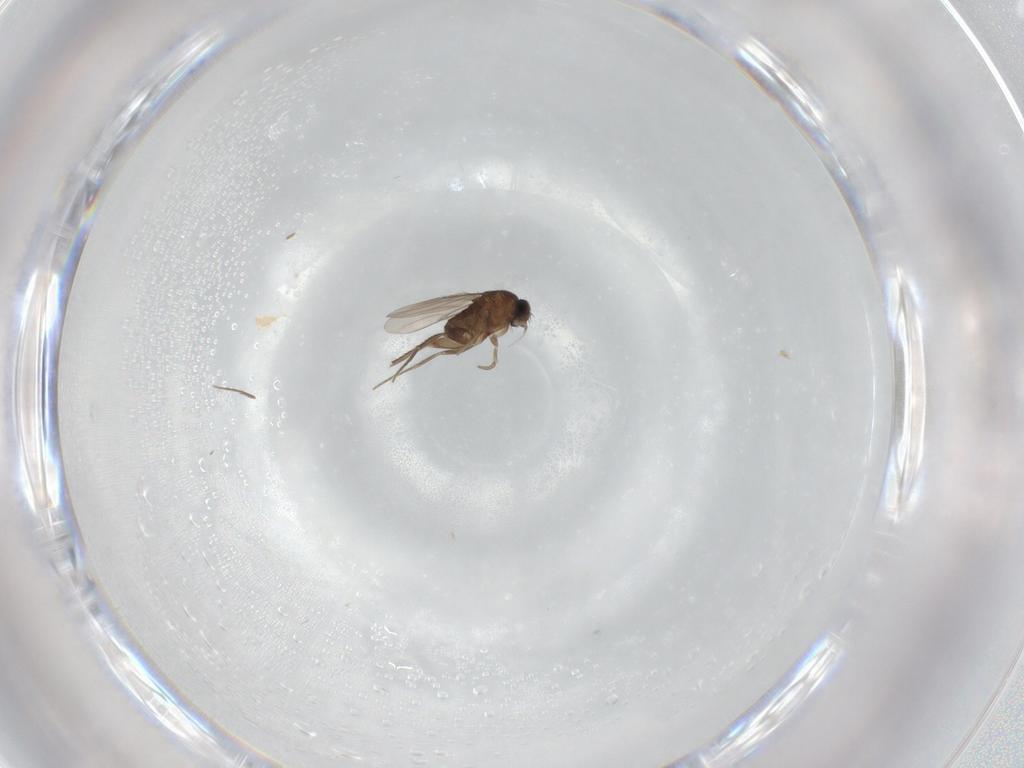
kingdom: Animalia
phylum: Arthropoda
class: Insecta
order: Diptera
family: Phoridae
